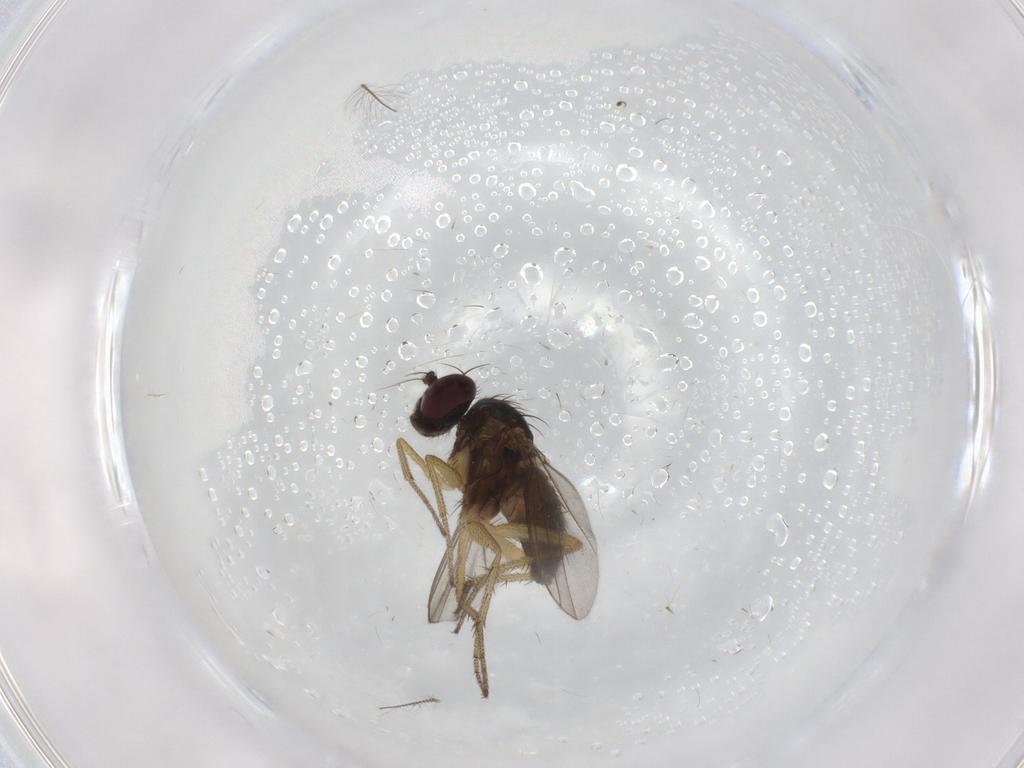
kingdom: Animalia
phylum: Arthropoda
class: Insecta
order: Diptera
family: Chironomidae
